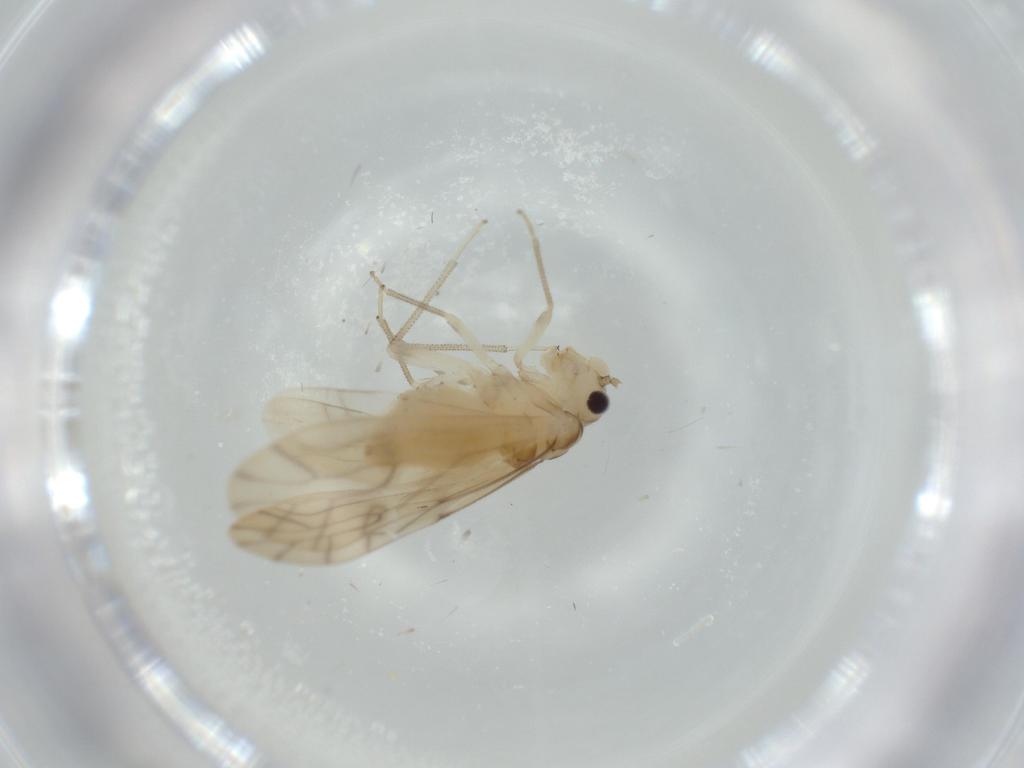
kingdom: Animalia
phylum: Arthropoda
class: Insecta
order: Psocodea
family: Caeciliusidae
